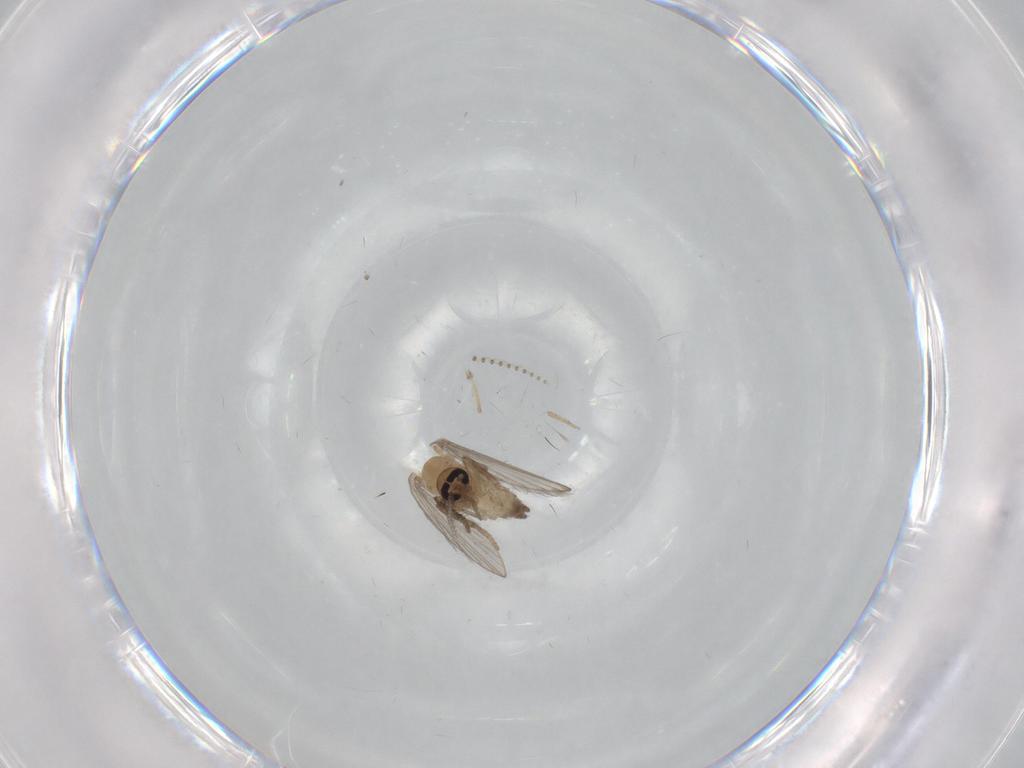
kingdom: Animalia
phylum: Arthropoda
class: Insecta
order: Diptera
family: Psychodidae
